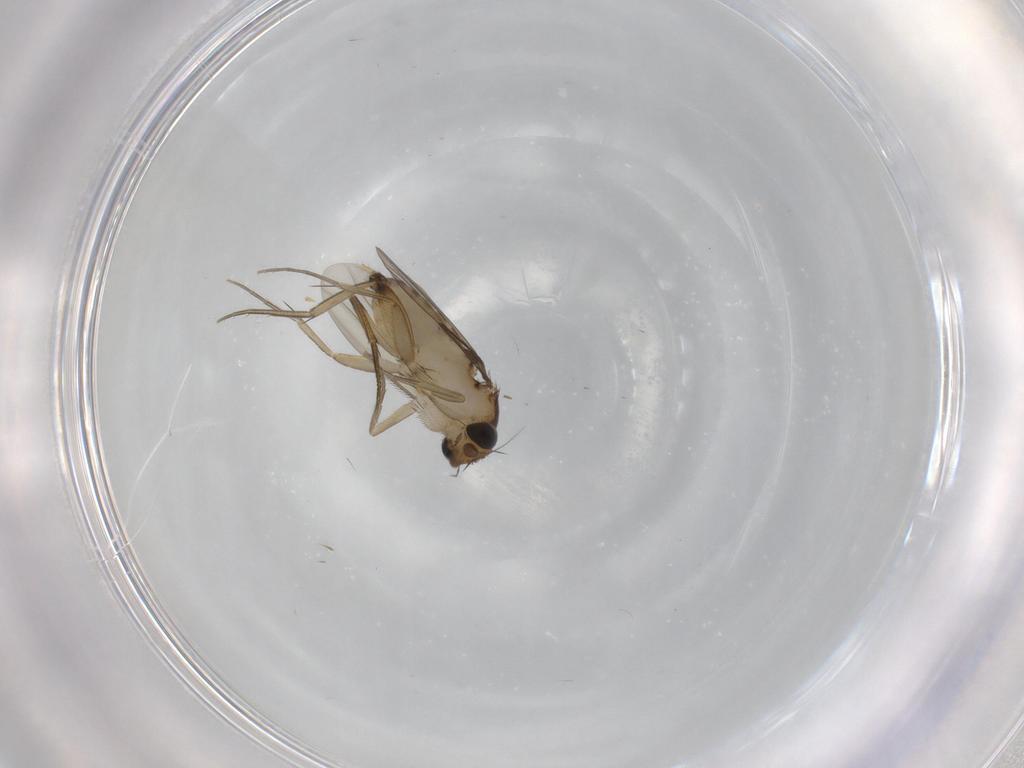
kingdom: Animalia
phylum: Arthropoda
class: Insecta
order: Diptera
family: Phoridae
